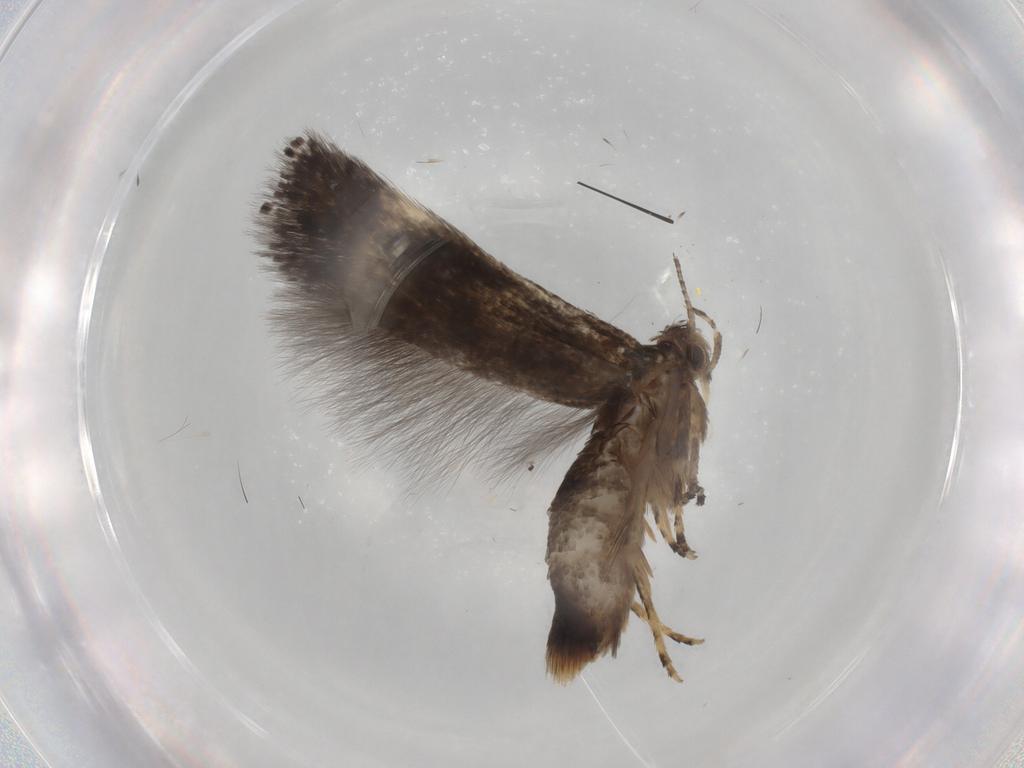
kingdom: Animalia
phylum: Arthropoda
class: Insecta
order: Lepidoptera
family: Elachistidae
